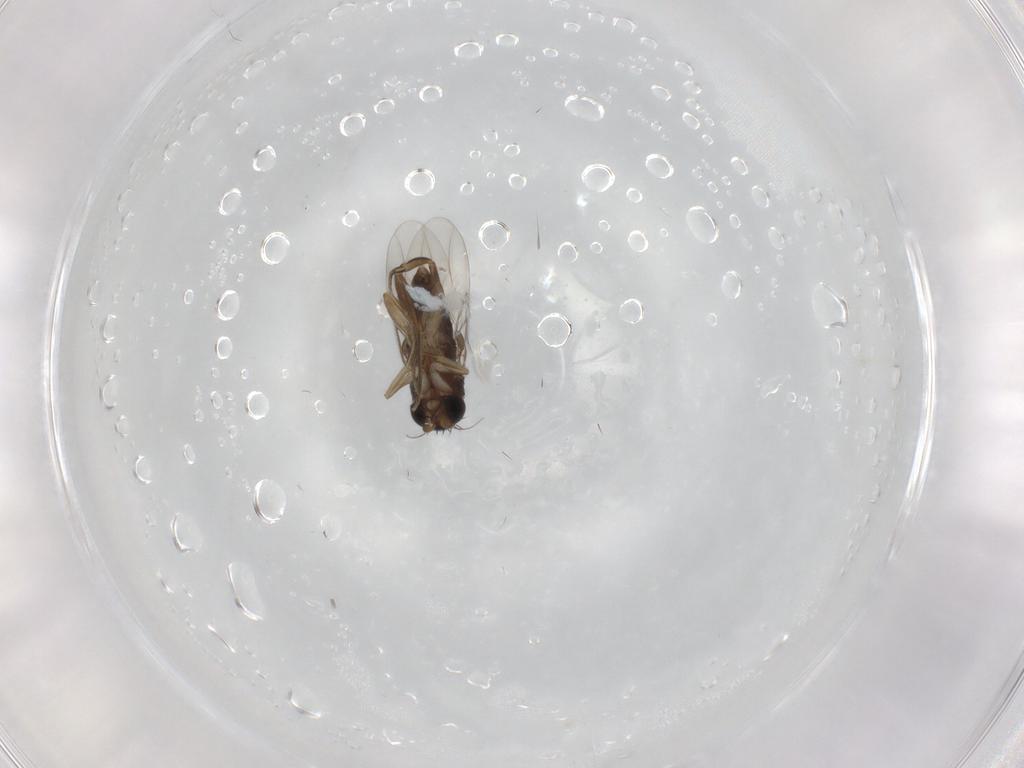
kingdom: Animalia
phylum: Arthropoda
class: Insecta
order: Diptera
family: Phoridae
